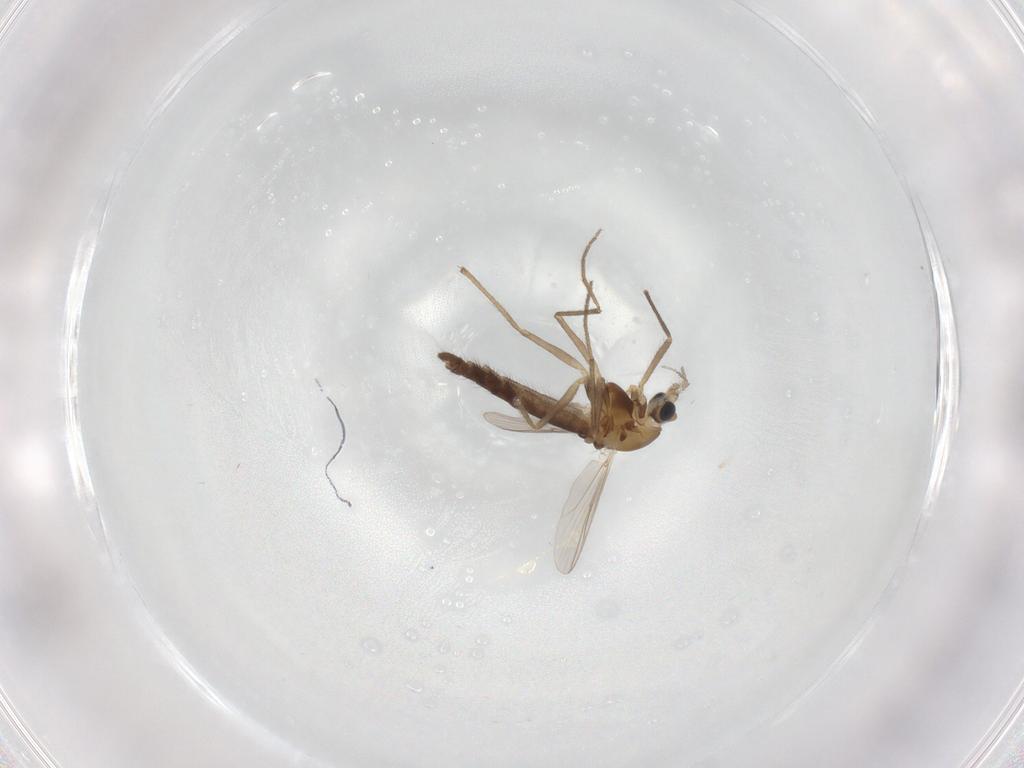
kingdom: Animalia
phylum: Arthropoda
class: Insecta
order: Diptera
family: Chironomidae
